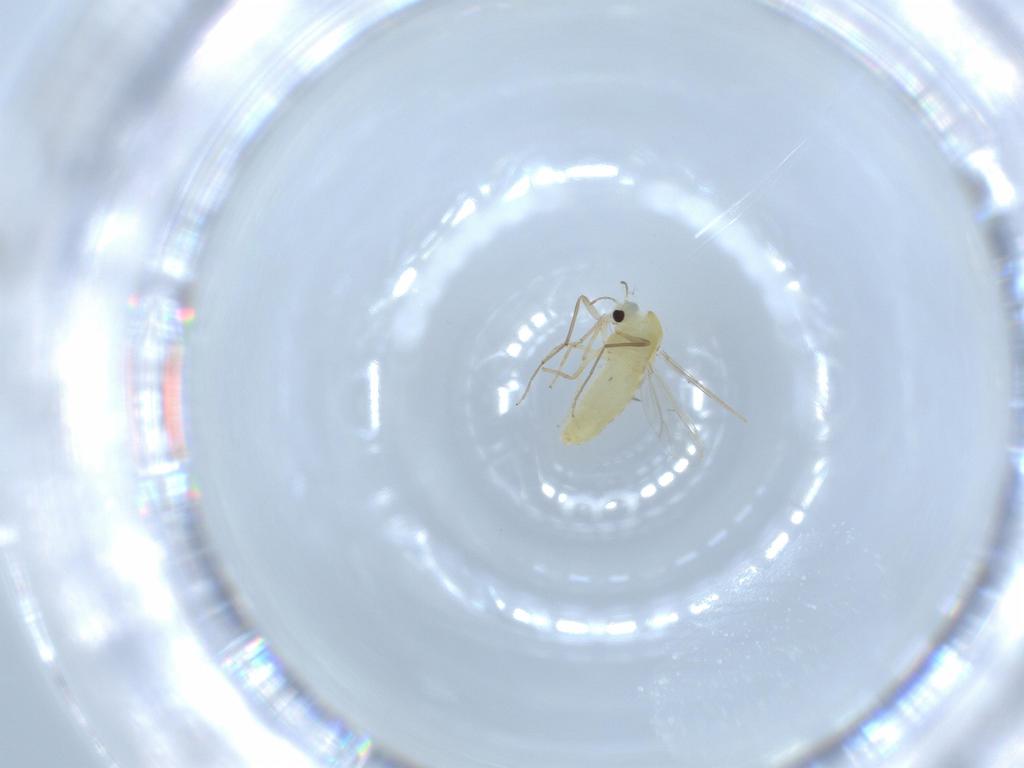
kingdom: Animalia
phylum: Arthropoda
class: Insecta
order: Diptera
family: Chironomidae
